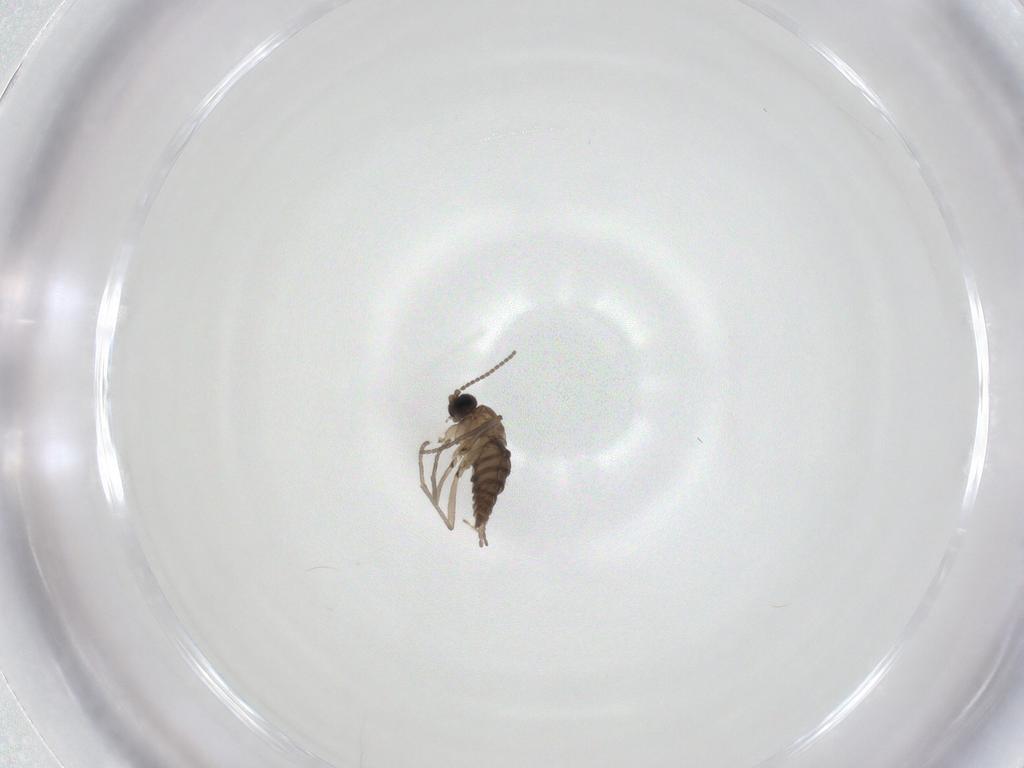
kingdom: Animalia
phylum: Arthropoda
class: Insecta
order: Diptera
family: Chironomidae
